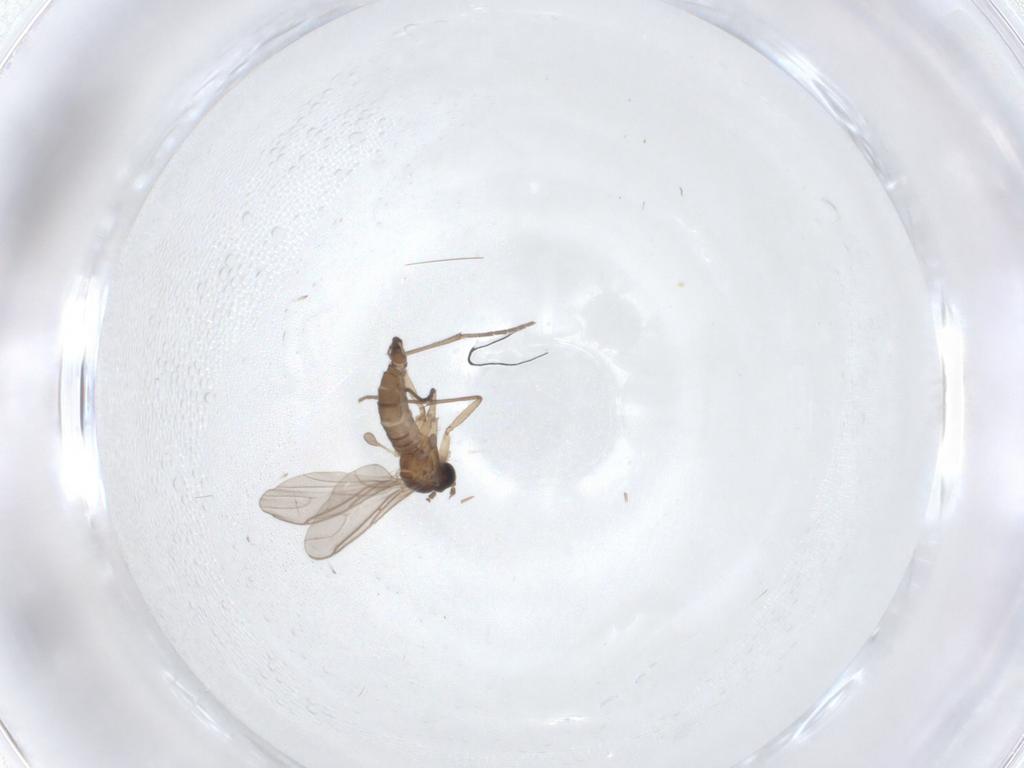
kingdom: Animalia
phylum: Arthropoda
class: Insecta
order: Diptera
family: Sciaridae
